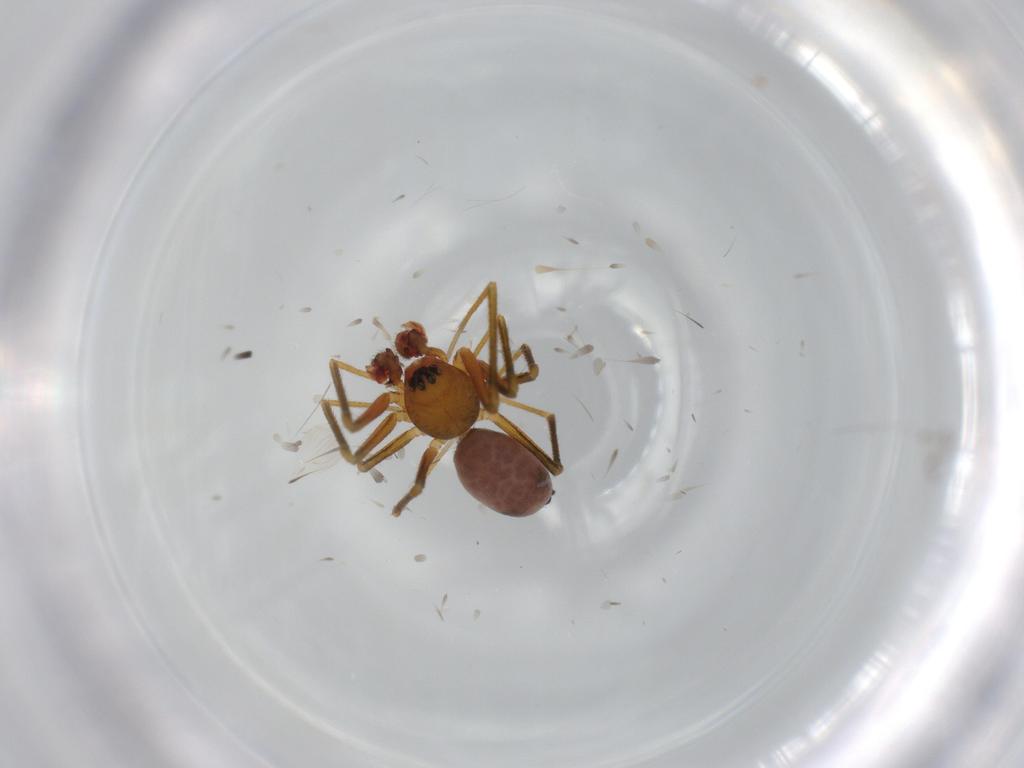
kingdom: Animalia
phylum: Arthropoda
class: Arachnida
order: Araneae
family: Linyphiidae
